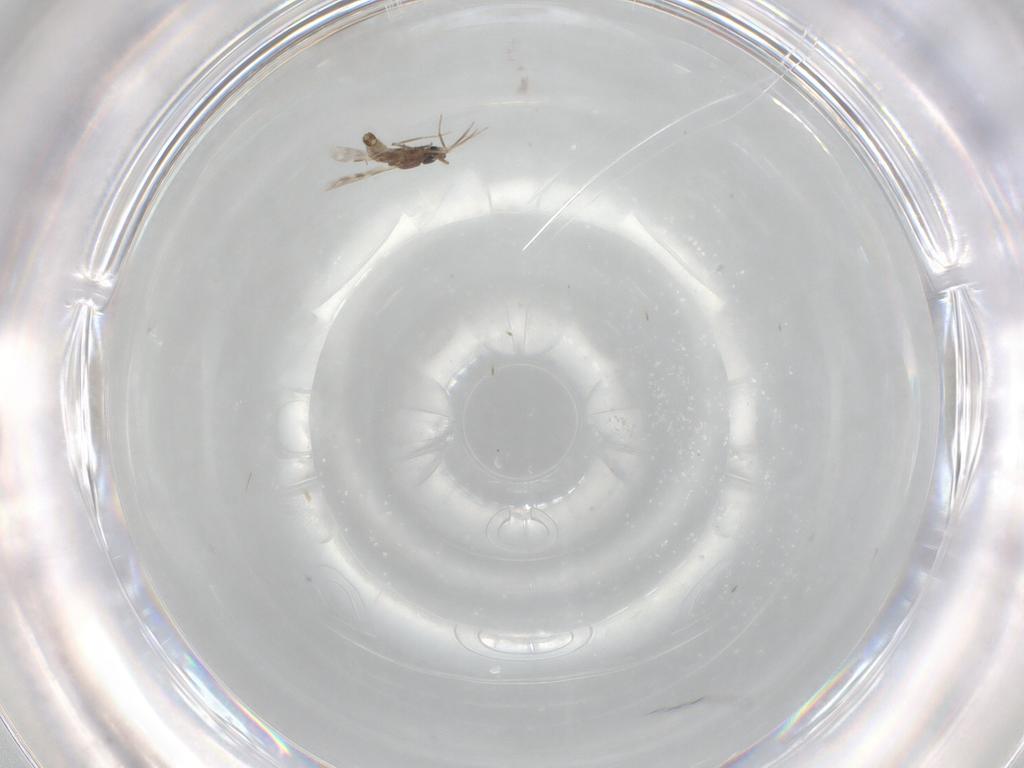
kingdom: Animalia
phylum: Arthropoda
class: Insecta
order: Diptera
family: Ceratopogonidae
